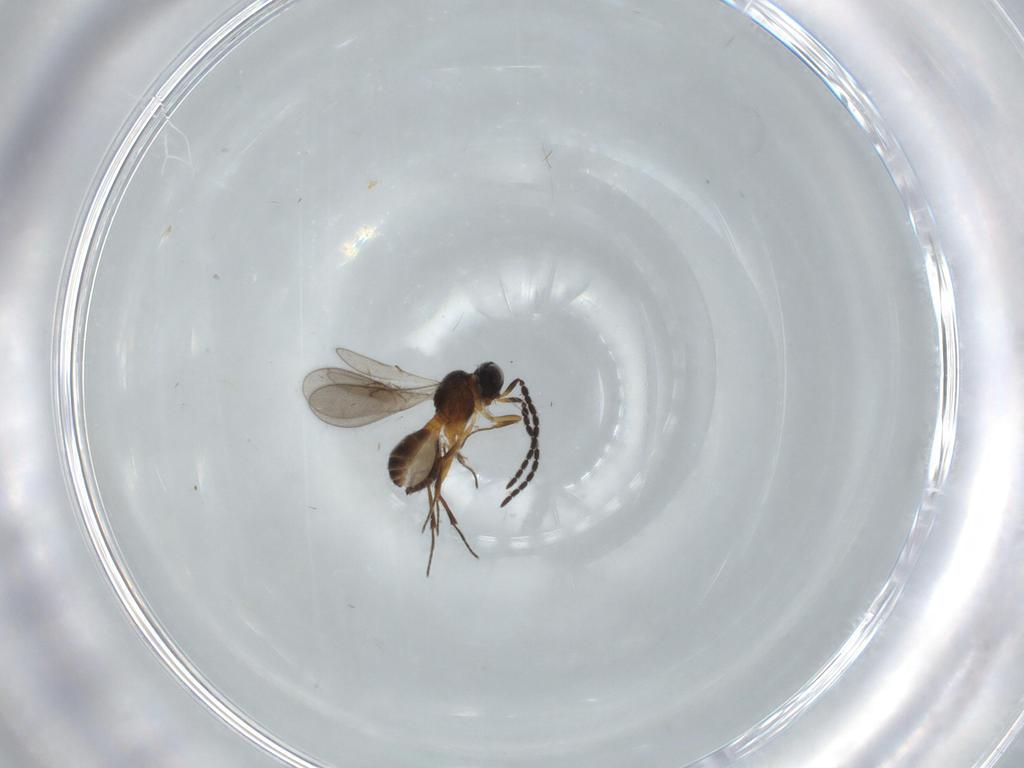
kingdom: Animalia
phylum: Arthropoda
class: Insecta
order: Hymenoptera
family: Scelionidae
